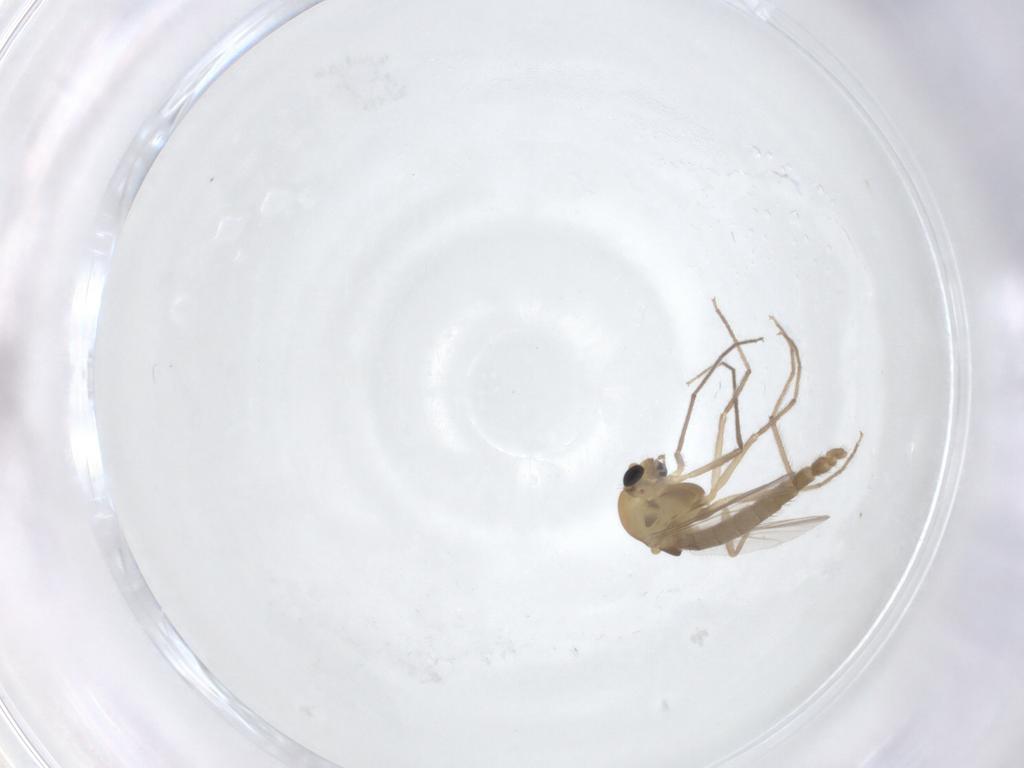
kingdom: Animalia
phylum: Arthropoda
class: Insecta
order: Diptera
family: Chironomidae
